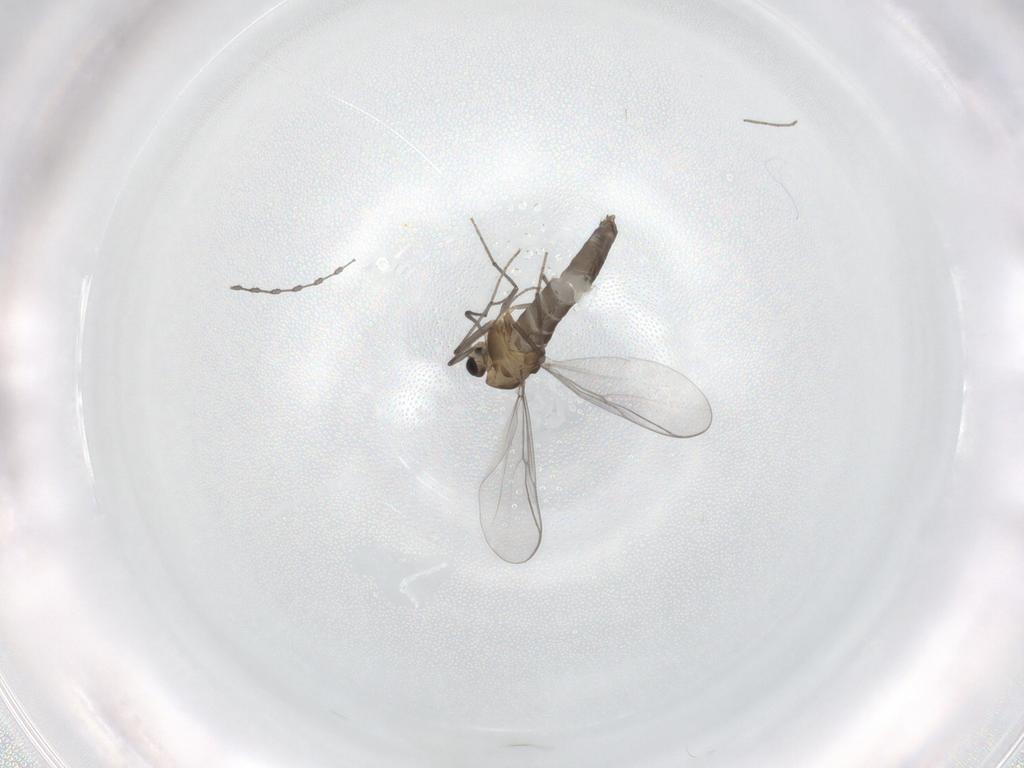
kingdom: Animalia
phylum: Arthropoda
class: Insecta
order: Diptera
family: Chironomidae
